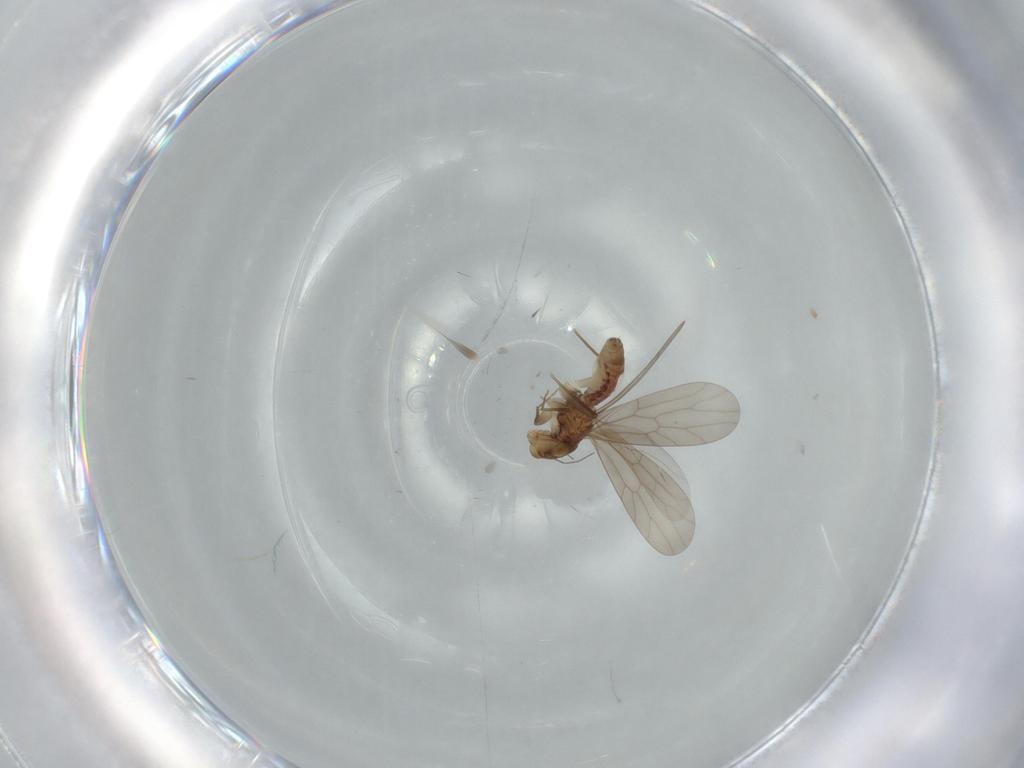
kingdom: Animalia
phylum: Arthropoda
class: Insecta
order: Psocodea
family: Lepidopsocidae
